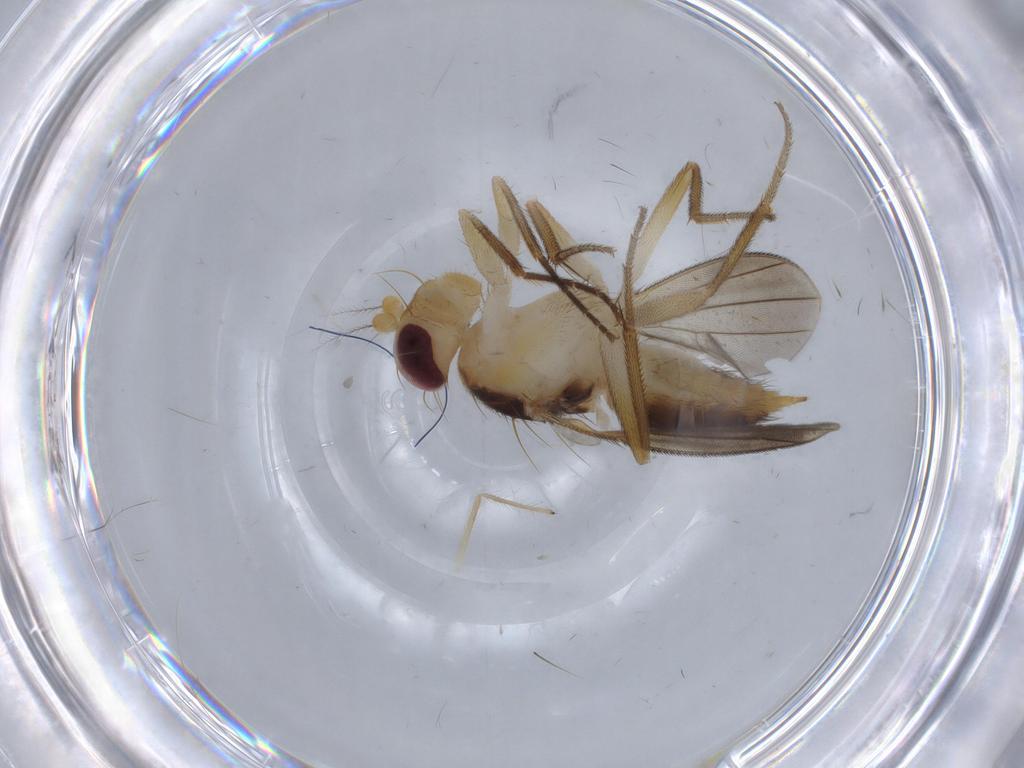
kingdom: Animalia
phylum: Arthropoda
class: Insecta
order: Diptera
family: Agromyzidae
